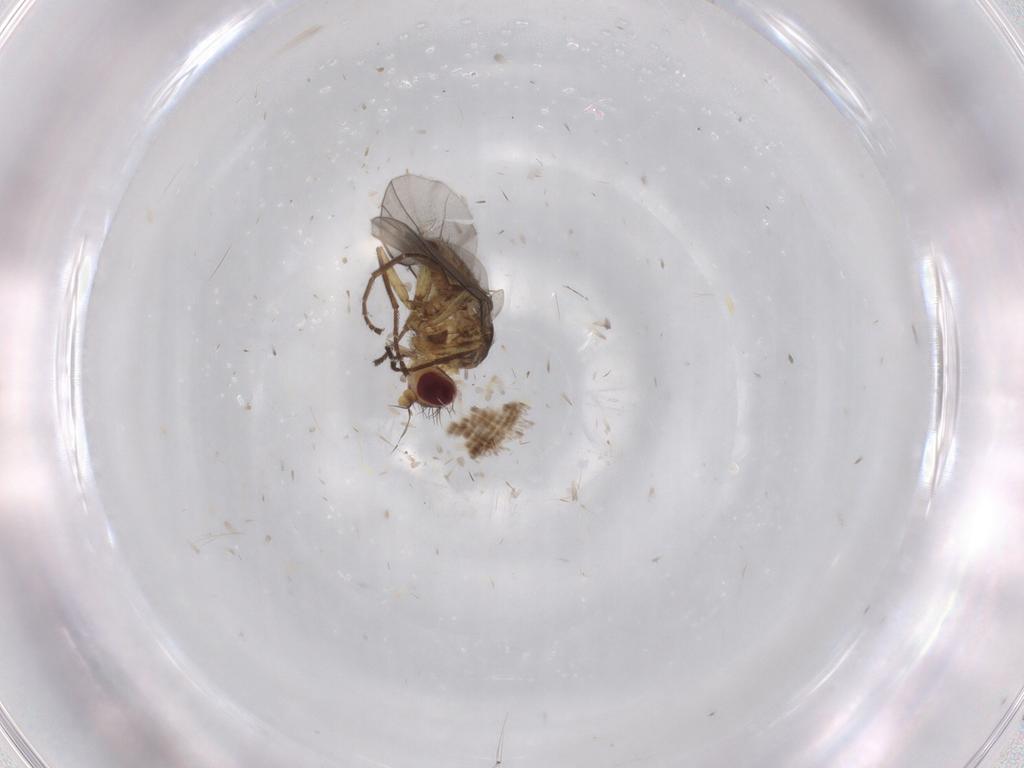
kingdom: Animalia
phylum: Arthropoda
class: Insecta
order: Diptera
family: Agromyzidae
